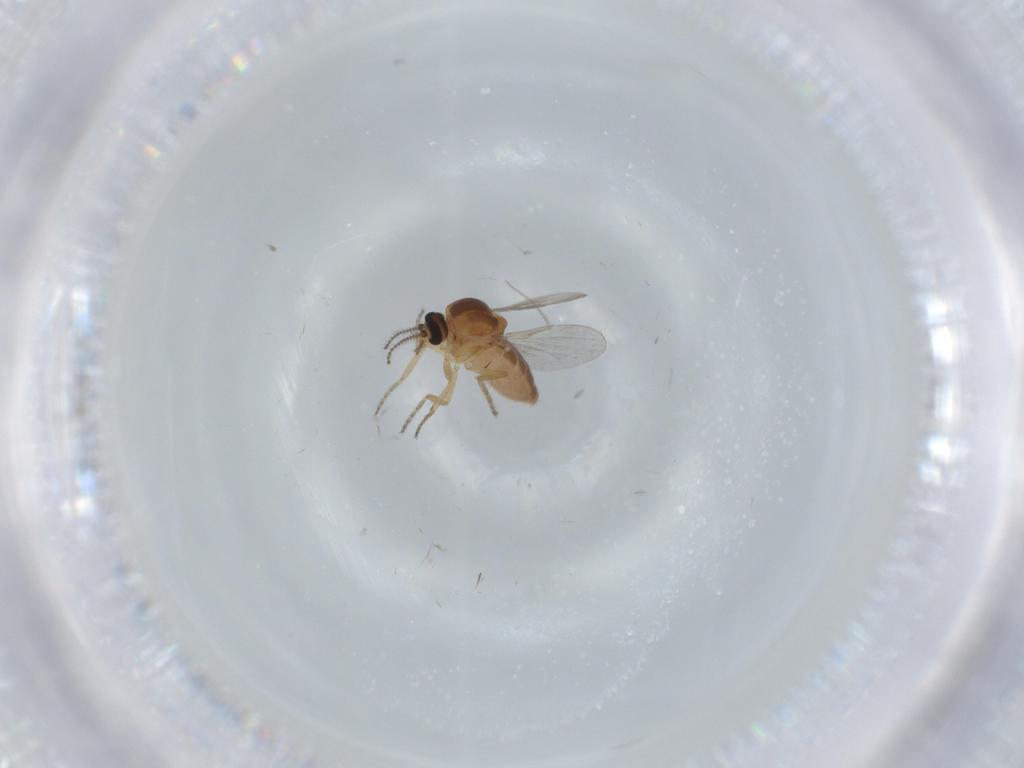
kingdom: Animalia
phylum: Arthropoda
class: Insecta
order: Diptera
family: Ceratopogonidae
